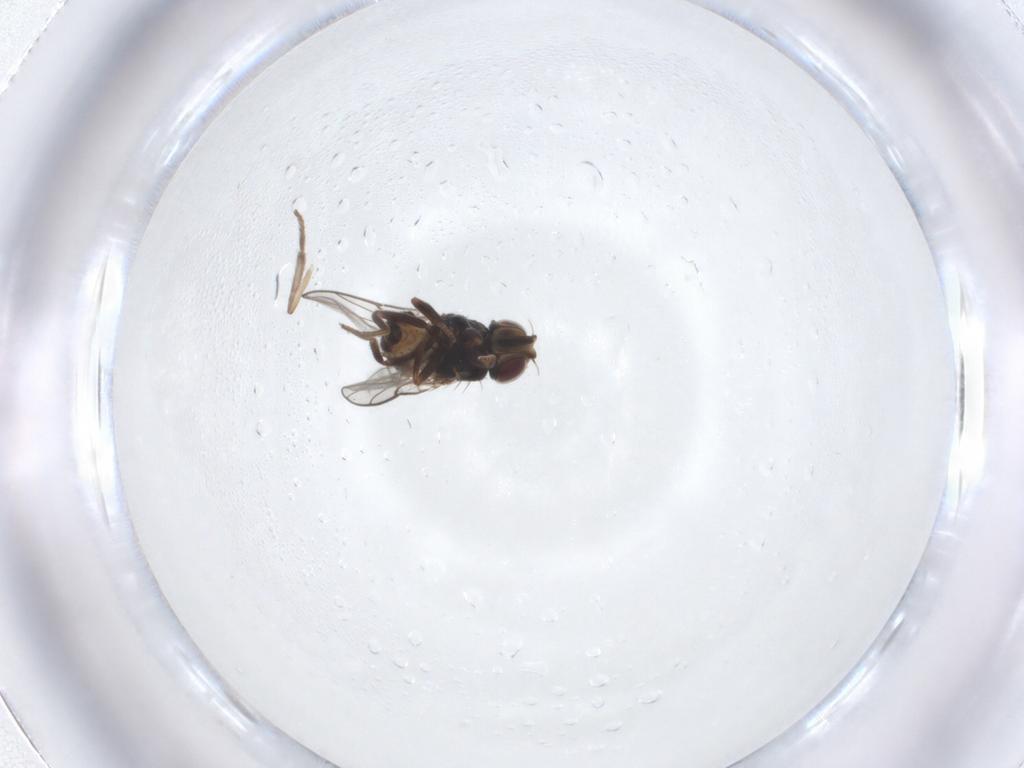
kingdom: Animalia
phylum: Arthropoda
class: Insecta
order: Diptera
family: Chloropidae
